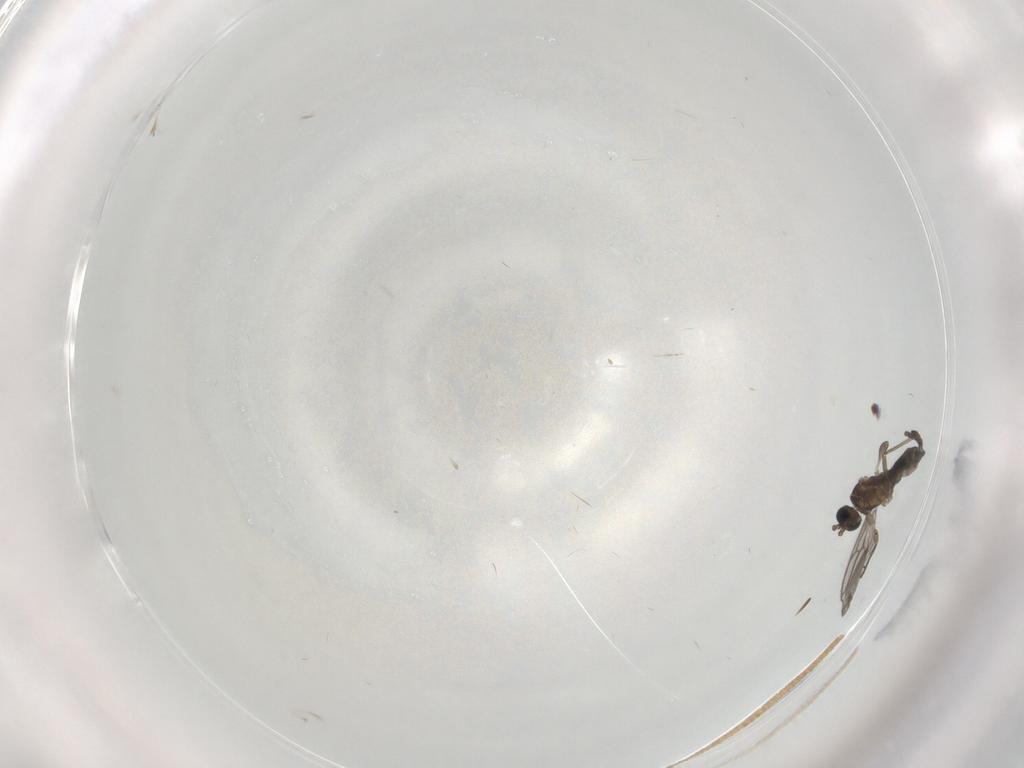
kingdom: Animalia
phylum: Arthropoda
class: Insecta
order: Diptera
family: Sciaridae
